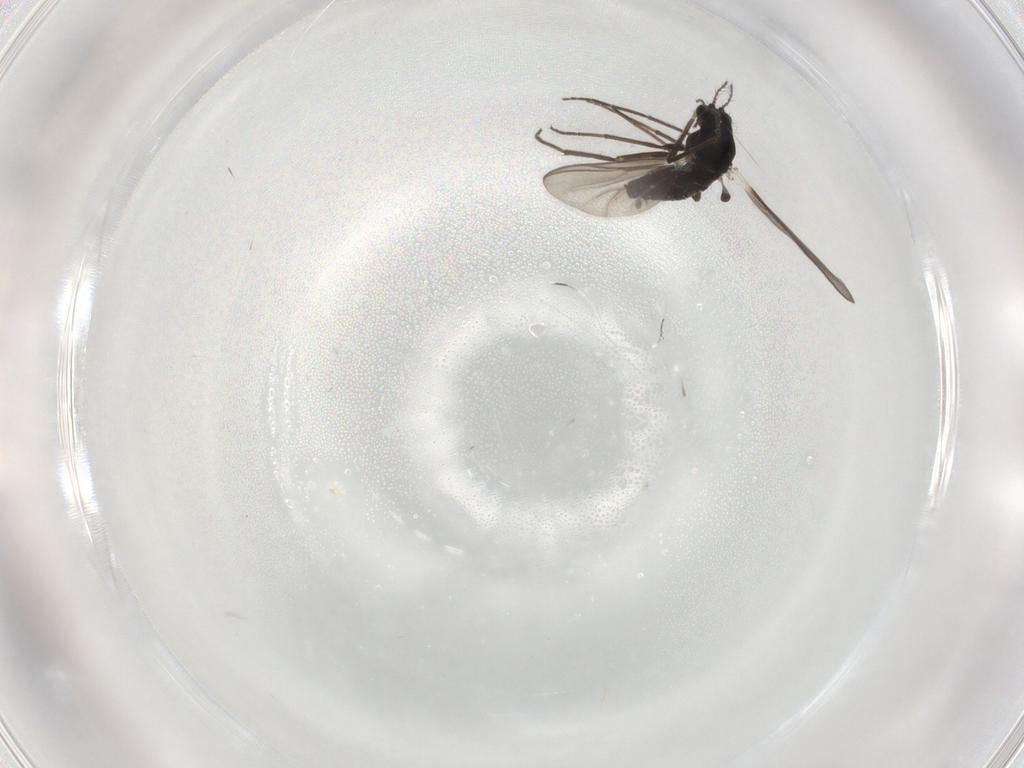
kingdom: Animalia
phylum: Arthropoda
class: Insecta
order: Diptera
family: Chironomidae
